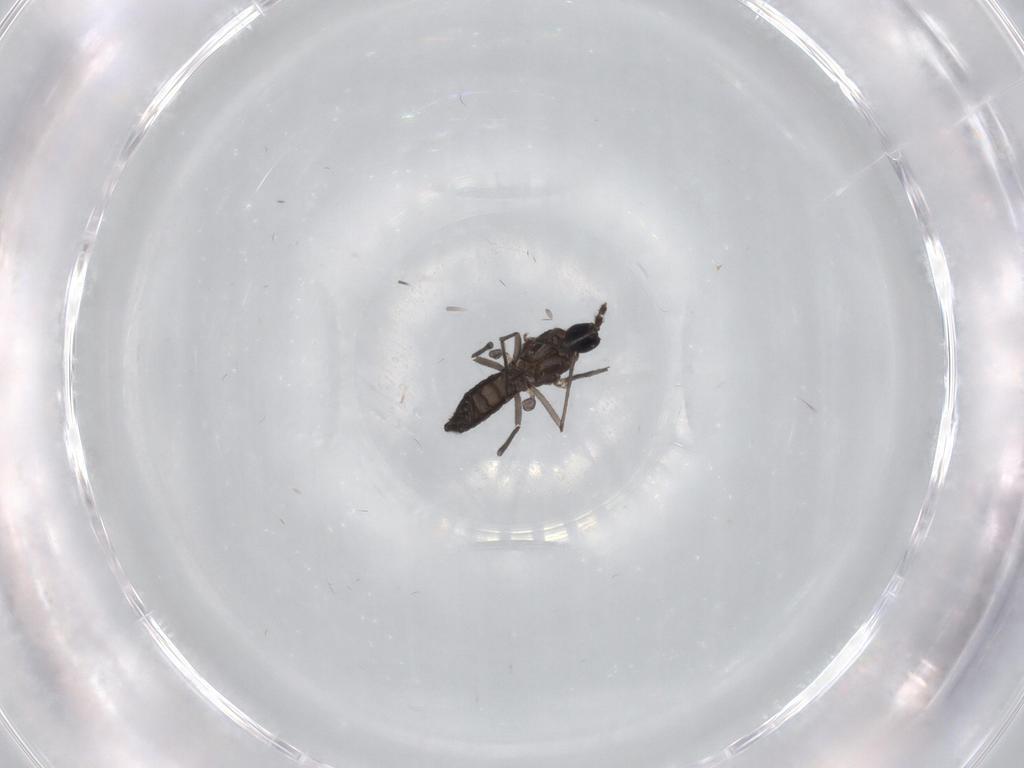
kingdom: Animalia
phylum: Arthropoda
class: Insecta
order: Diptera
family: Sciaridae
